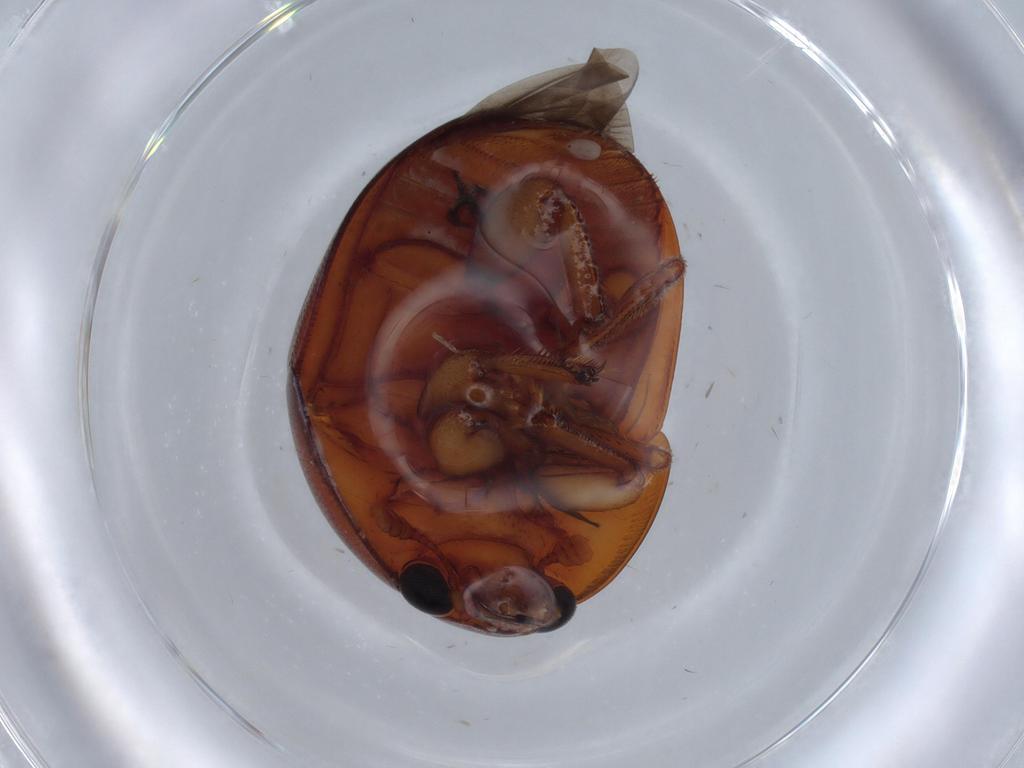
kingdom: Animalia
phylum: Arthropoda
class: Insecta
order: Coleoptera
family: Nitidulidae
